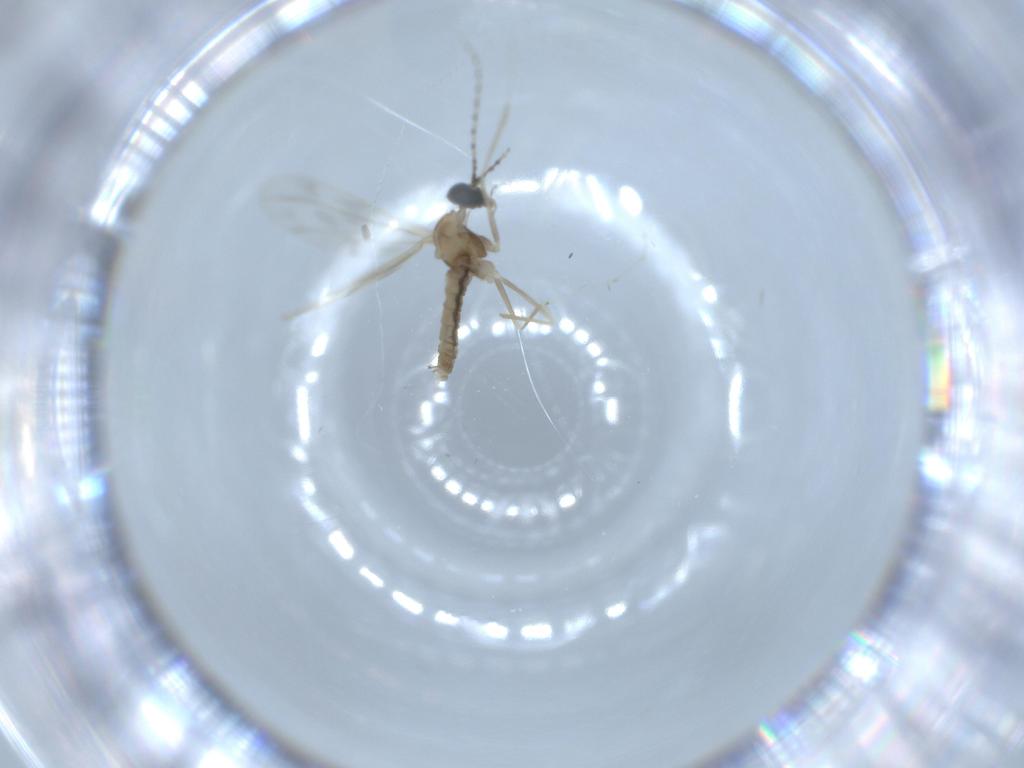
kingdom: Animalia
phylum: Arthropoda
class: Insecta
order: Diptera
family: Cecidomyiidae
